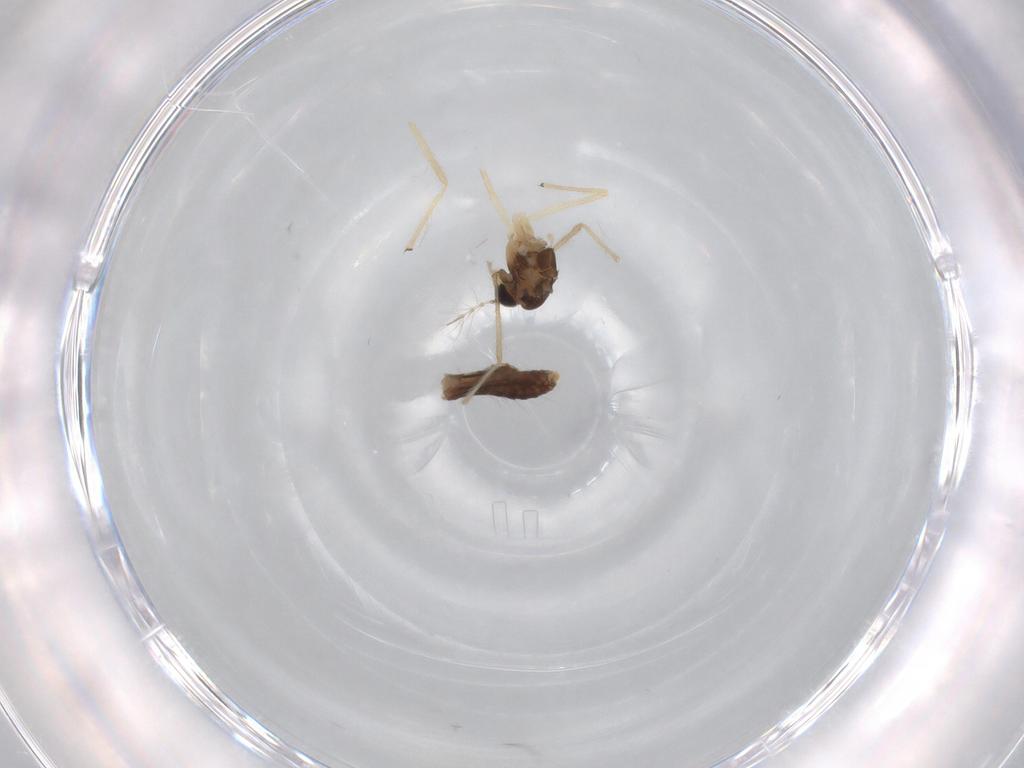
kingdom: Animalia
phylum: Arthropoda
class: Insecta
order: Diptera
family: Chironomidae
